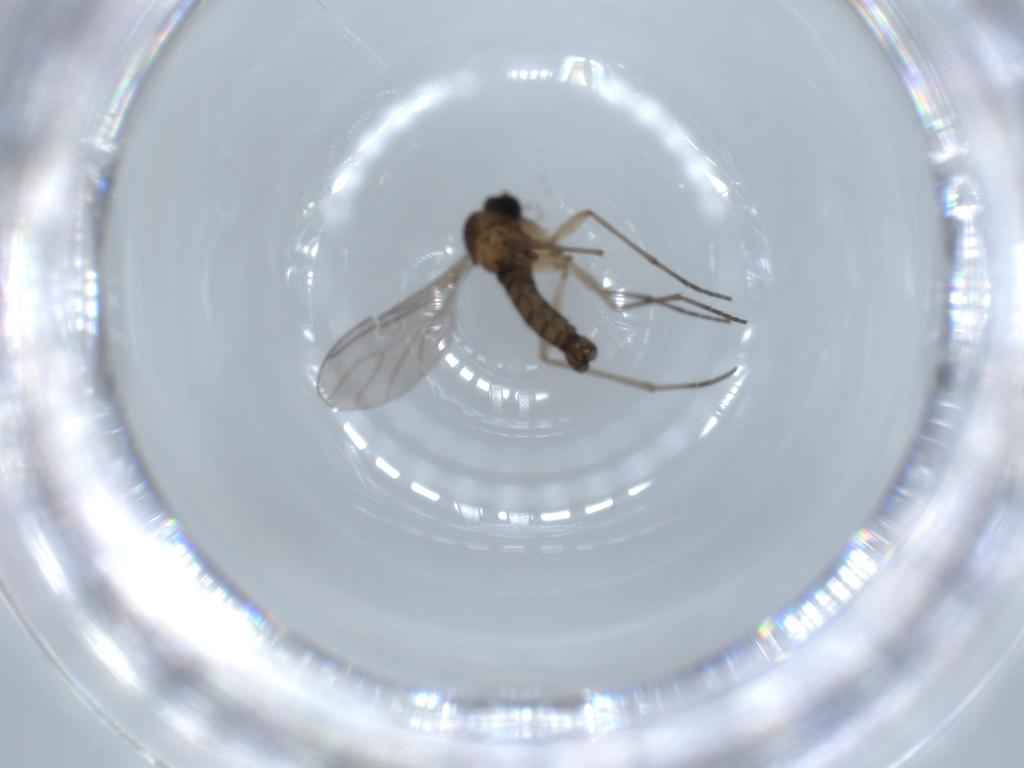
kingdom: Animalia
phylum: Arthropoda
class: Insecta
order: Diptera
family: Sciaridae
